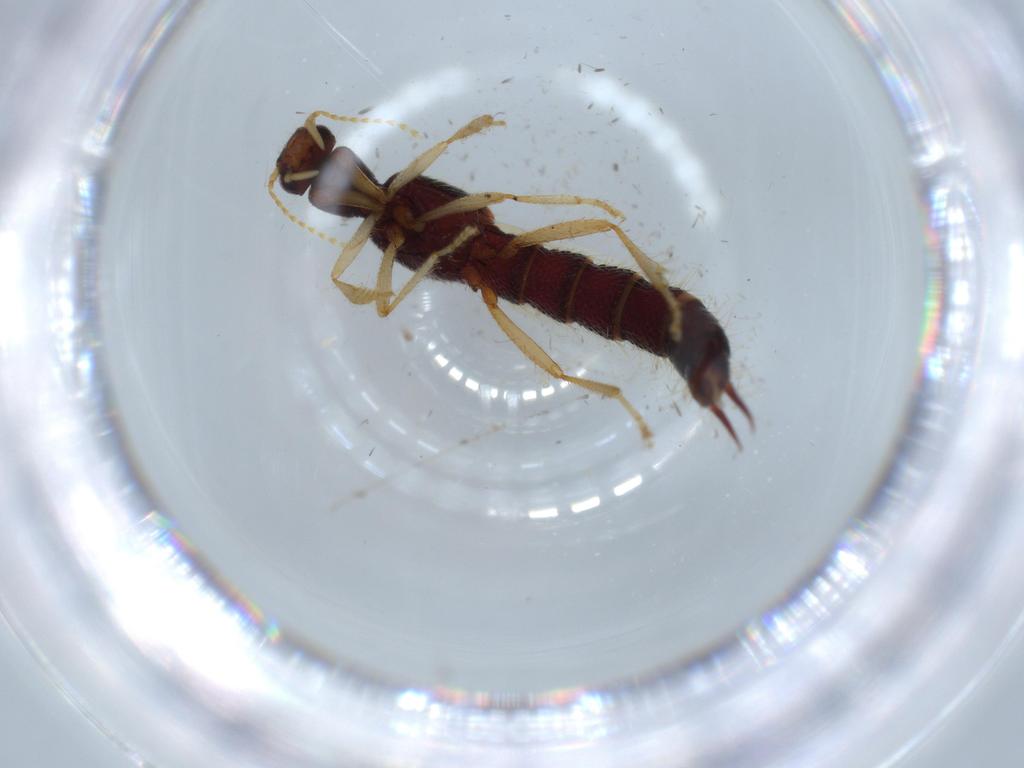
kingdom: Animalia
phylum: Arthropoda
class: Insecta
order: Coleoptera
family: Staphylinidae
